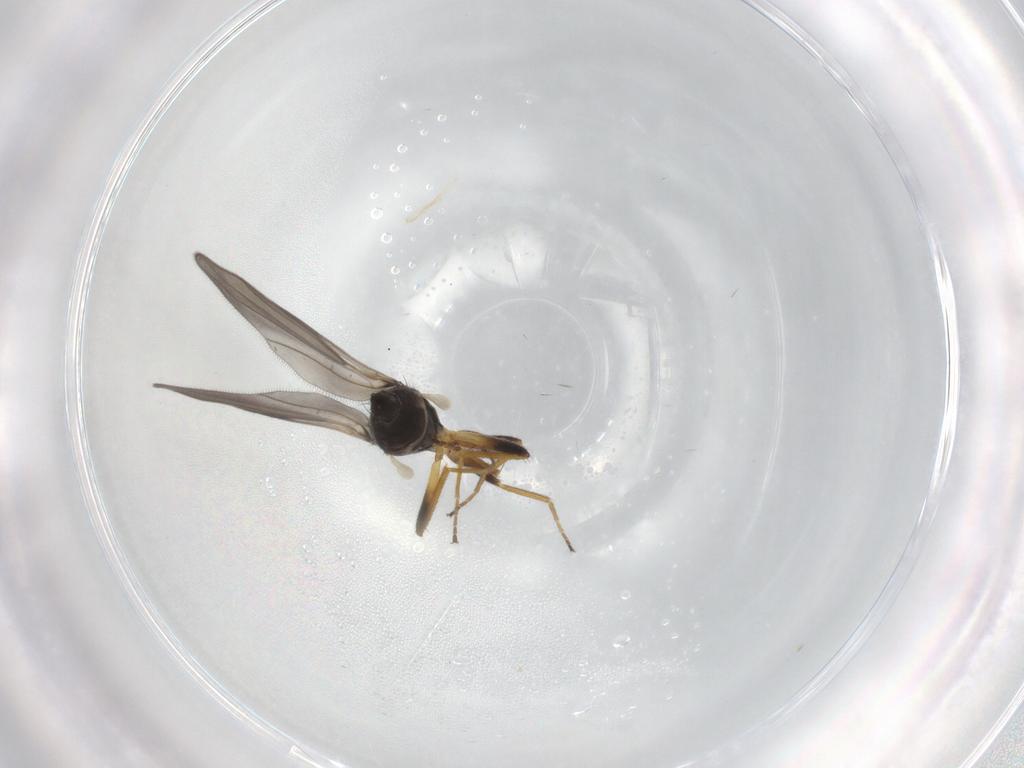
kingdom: Animalia
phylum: Arthropoda
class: Insecta
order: Diptera
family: Hybotidae
